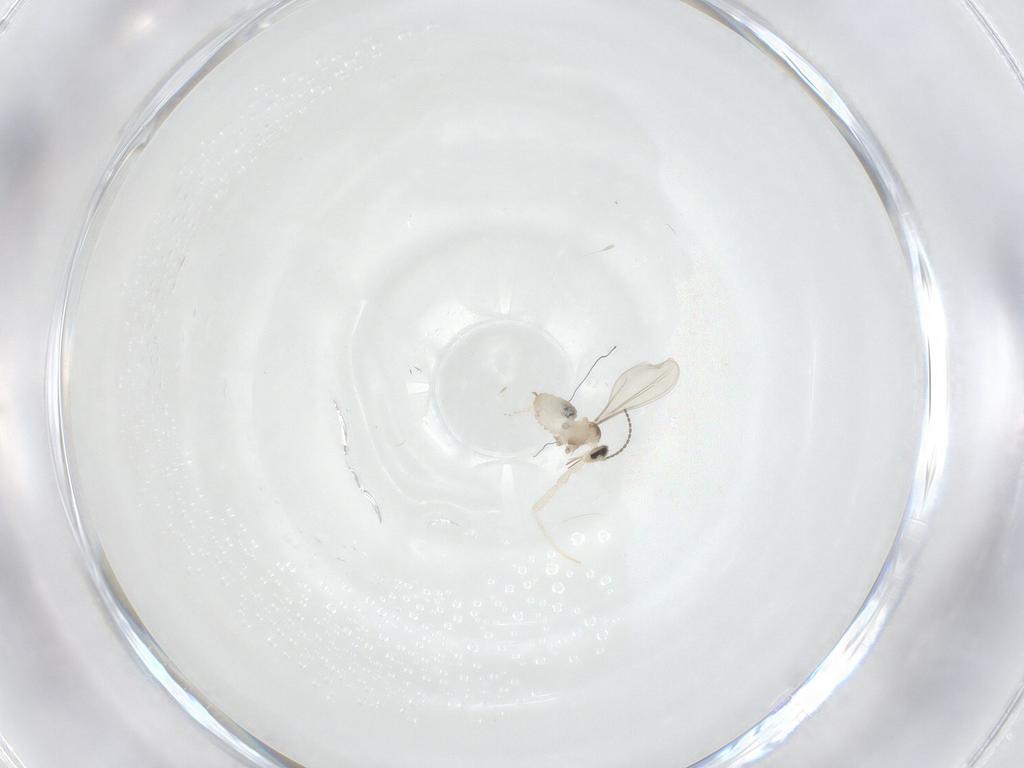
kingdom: Animalia
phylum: Arthropoda
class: Insecta
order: Diptera
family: Cecidomyiidae
